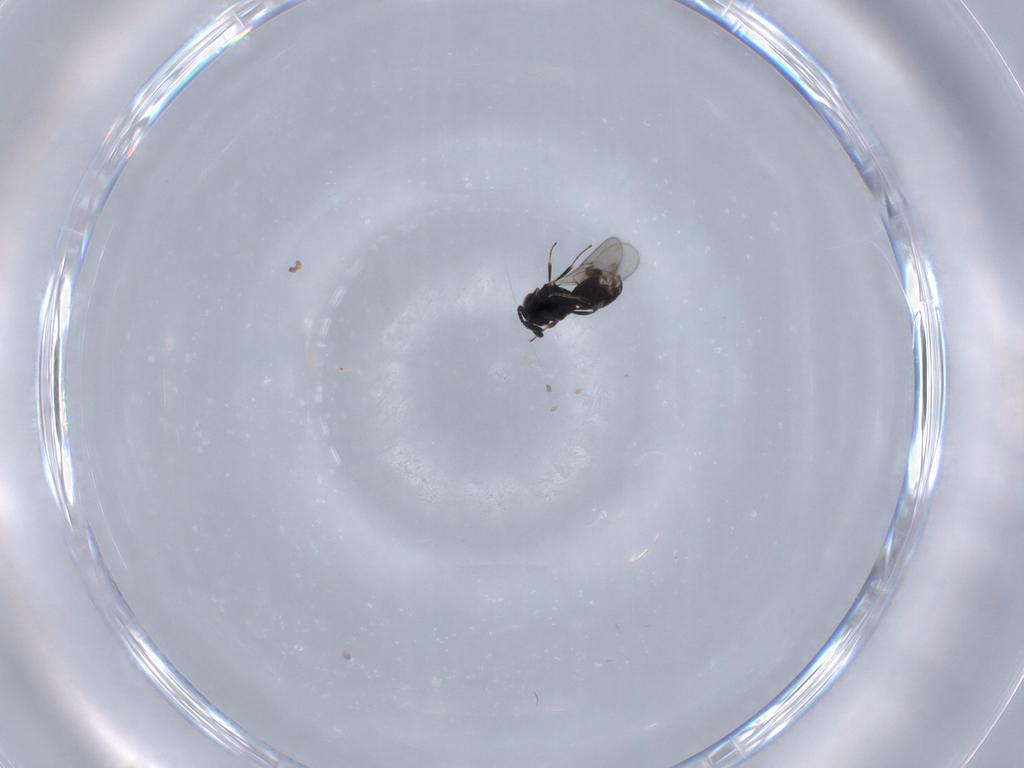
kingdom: Animalia
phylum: Arthropoda
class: Insecta
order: Hymenoptera
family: Scelionidae
